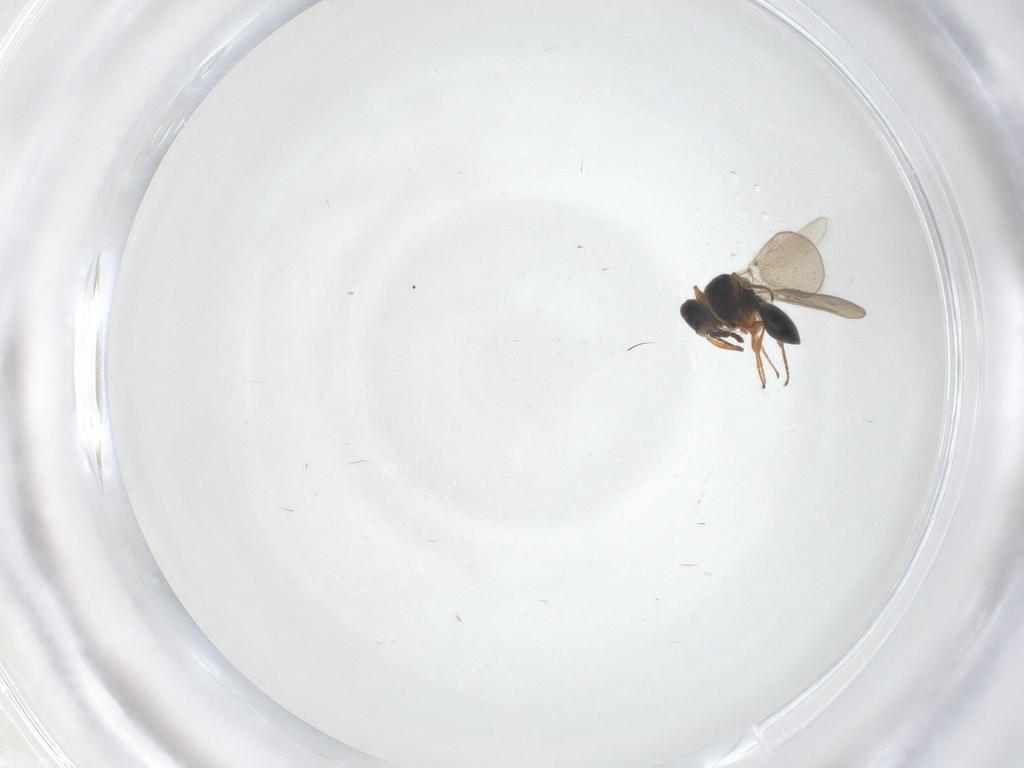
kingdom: Animalia
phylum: Arthropoda
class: Insecta
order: Hymenoptera
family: Platygastridae
